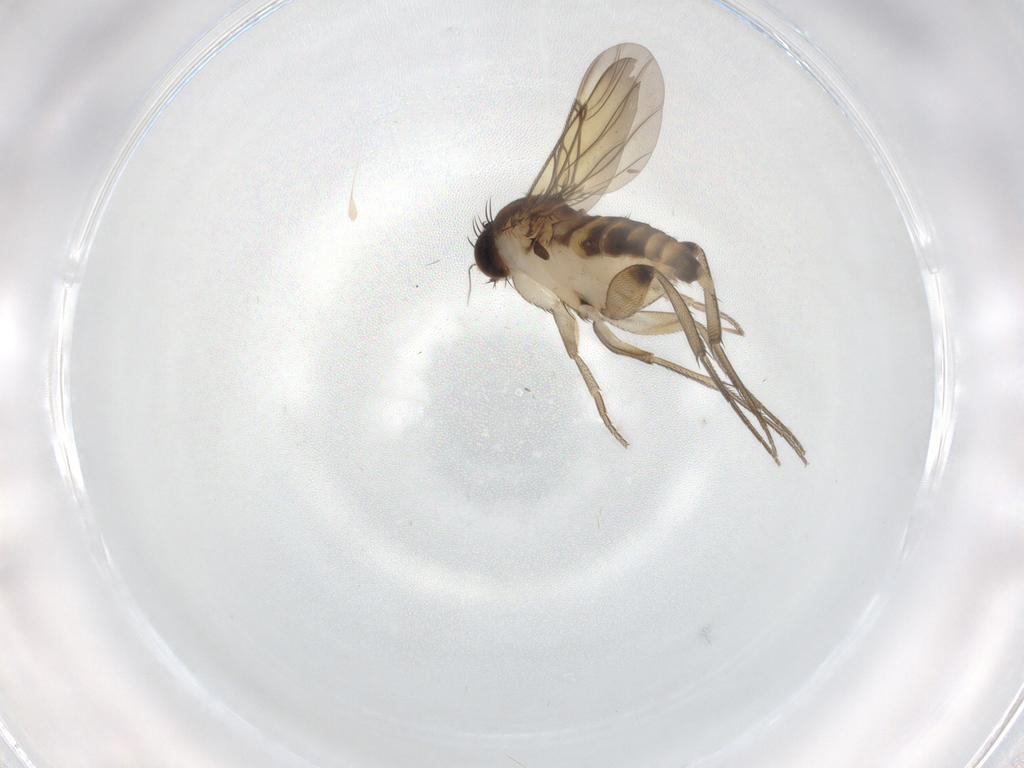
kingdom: Animalia
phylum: Arthropoda
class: Insecta
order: Diptera
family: Phoridae
